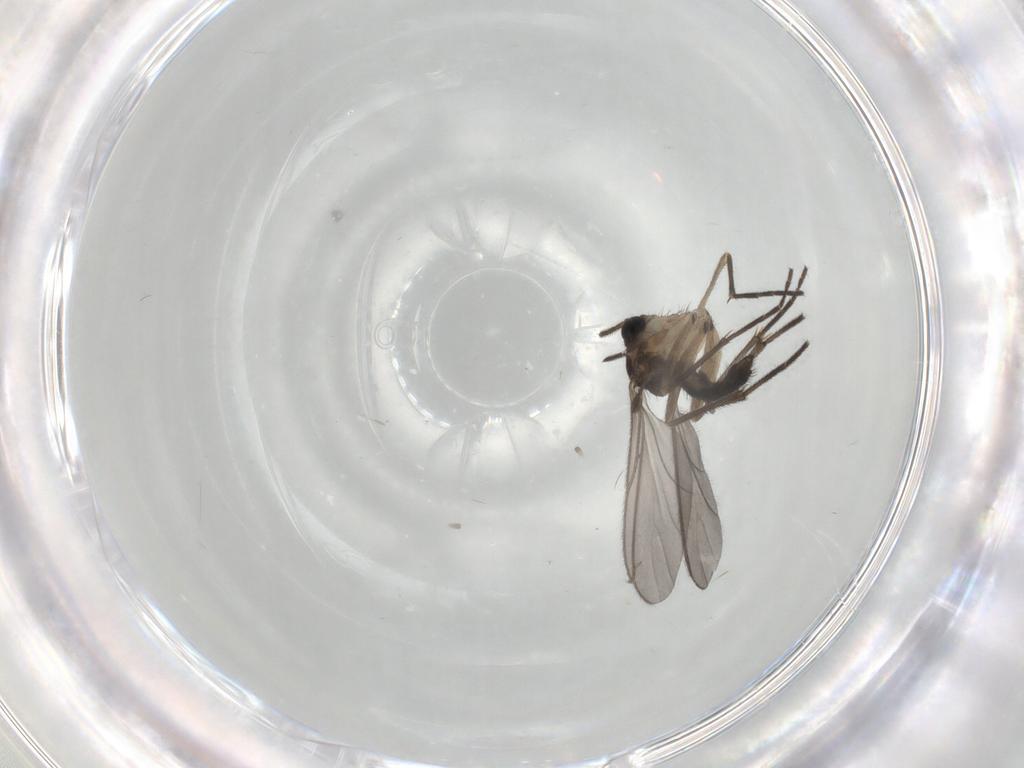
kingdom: Animalia
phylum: Arthropoda
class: Insecta
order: Diptera
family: Sciaridae
